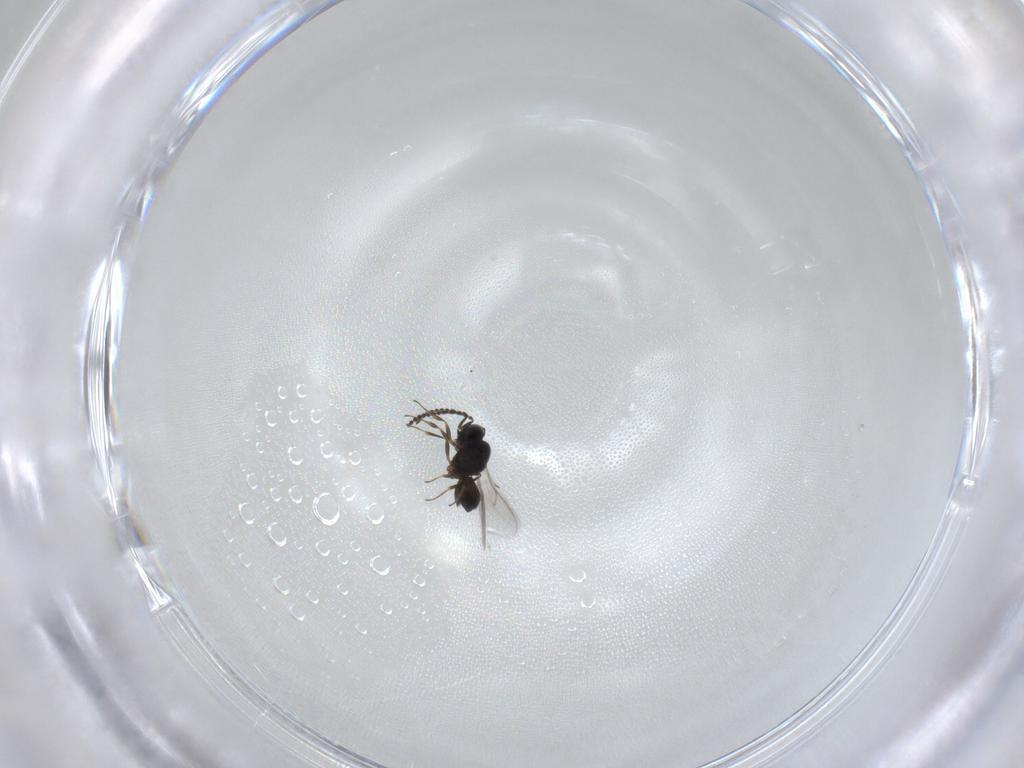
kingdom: Animalia
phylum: Arthropoda
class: Insecta
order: Hymenoptera
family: Scelionidae
